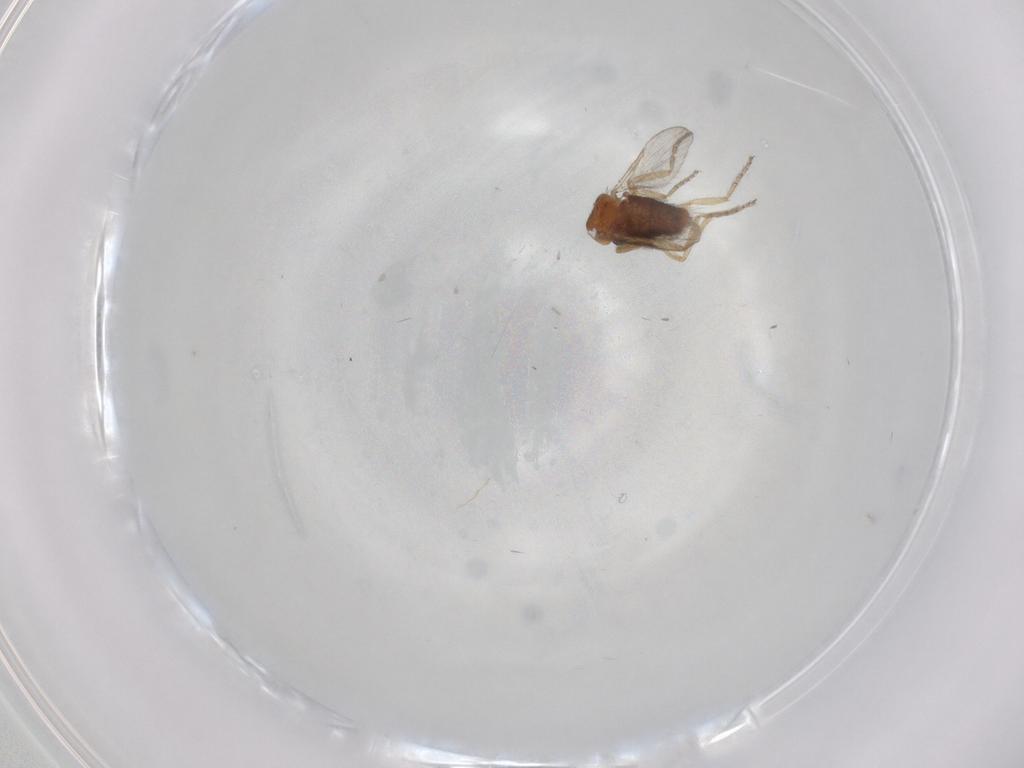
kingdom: Animalia
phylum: Arthropoda
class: Insecta
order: Diptera
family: Ceratopogonidae
